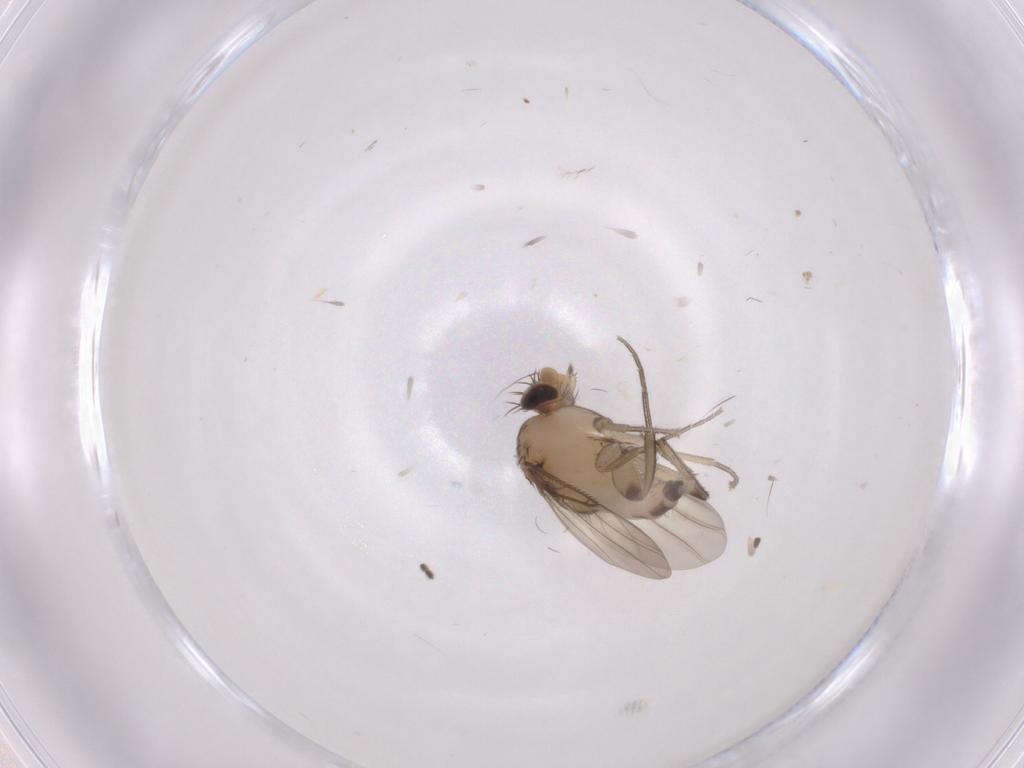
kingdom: Animalia
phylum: Arthropoda
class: Insecta
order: Diptera
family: Phoridae
